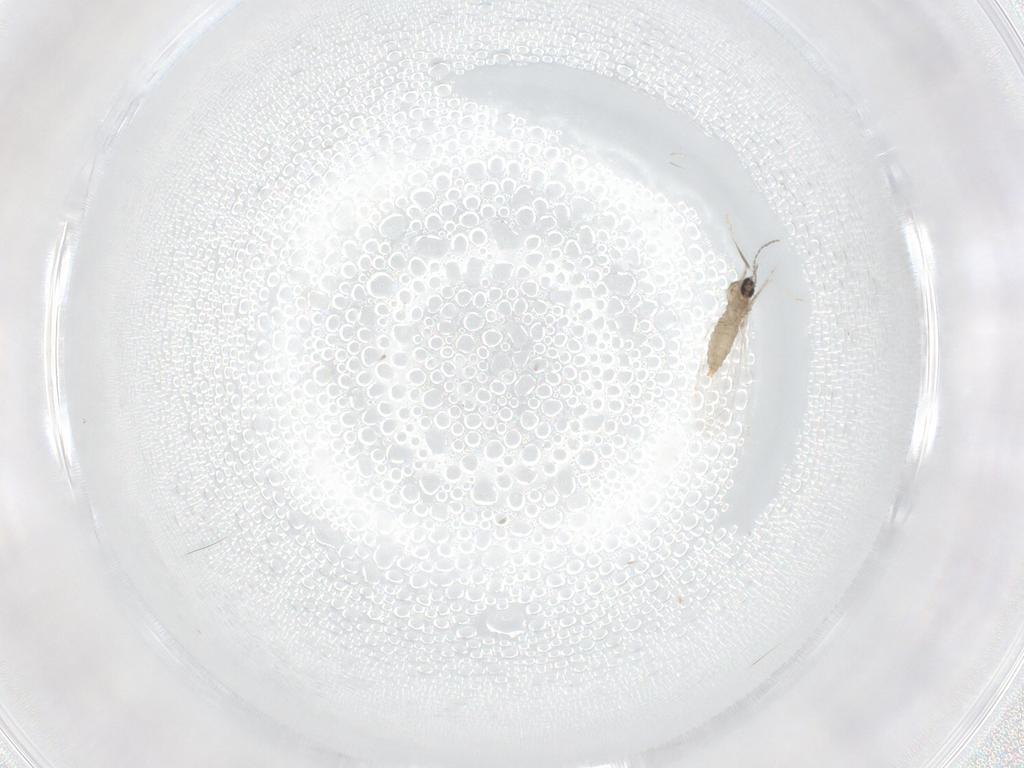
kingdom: Animalia
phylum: Arthropoda
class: Insecta
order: Diptera
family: Cecidomyiidae
